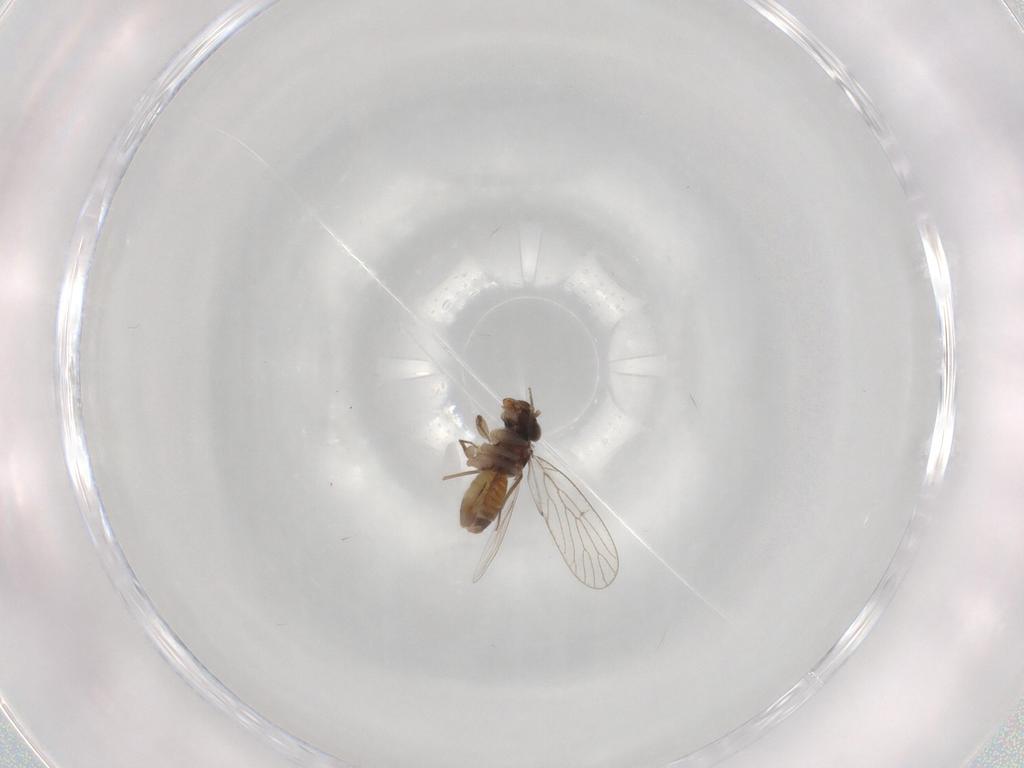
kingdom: Animalia
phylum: Arthropoda
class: Insecta
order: Psocodea
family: Psoquillidae
